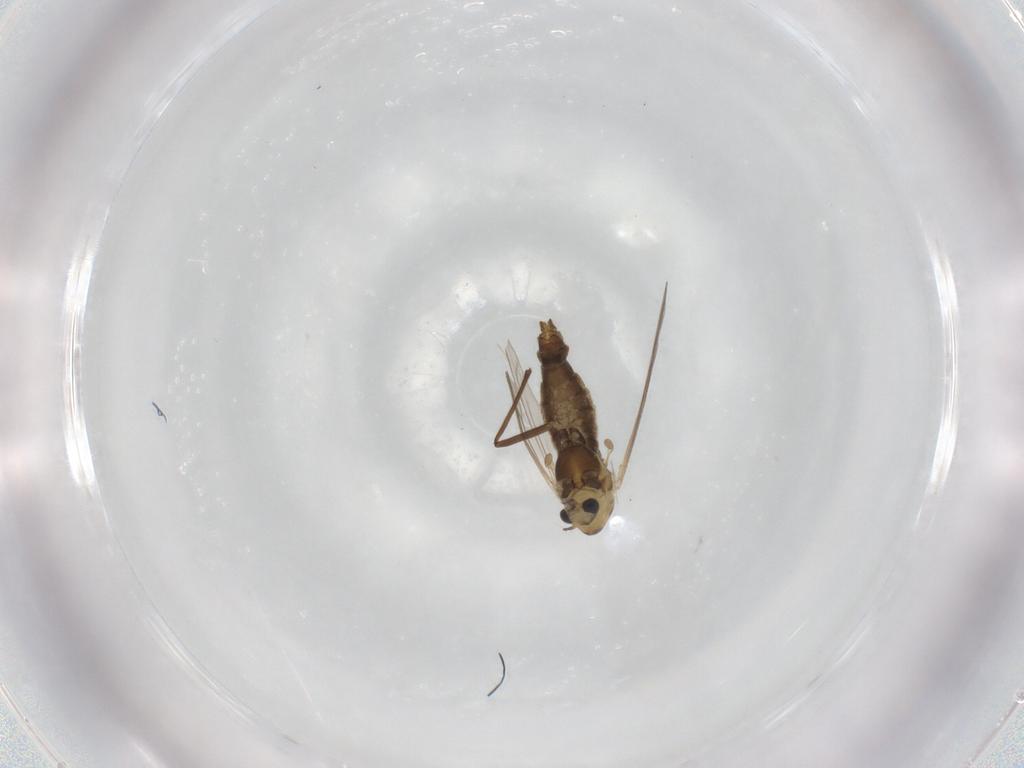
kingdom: Animalia
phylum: Arthropoda
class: Insecta
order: Diptera
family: Chironomidae
